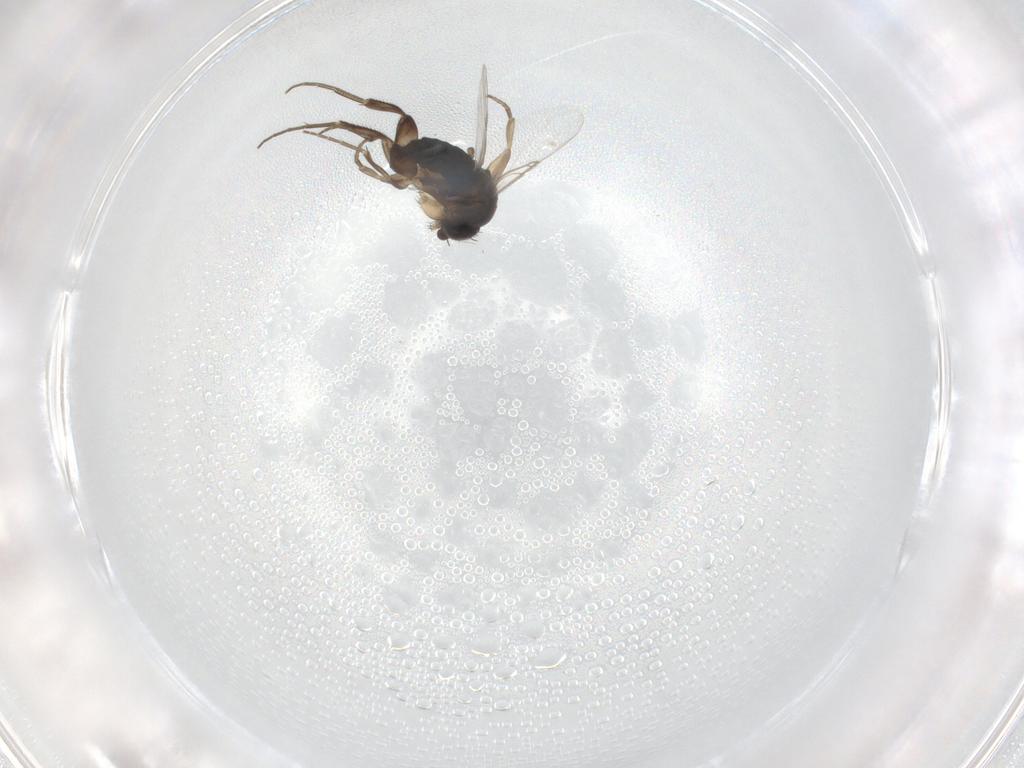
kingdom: Animalia
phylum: Arthropoda
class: Insecta
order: Diptera
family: Phoridae
